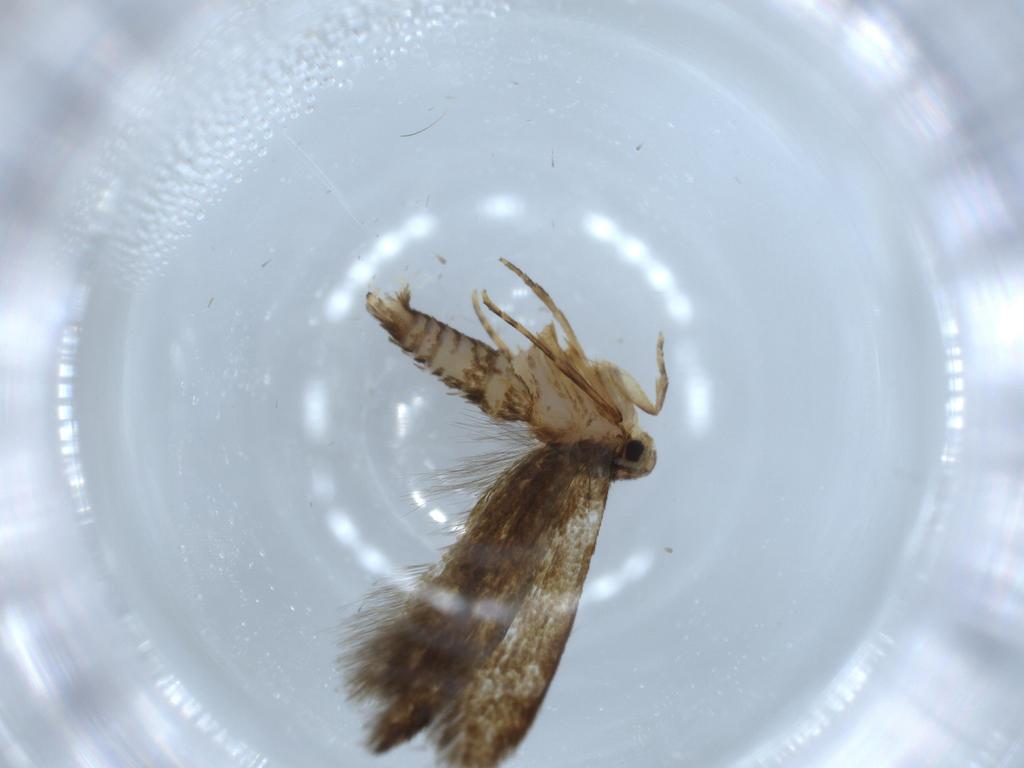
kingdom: Animalia
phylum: Arthropoda
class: Insecta
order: Lepidoptera
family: Tineidae
